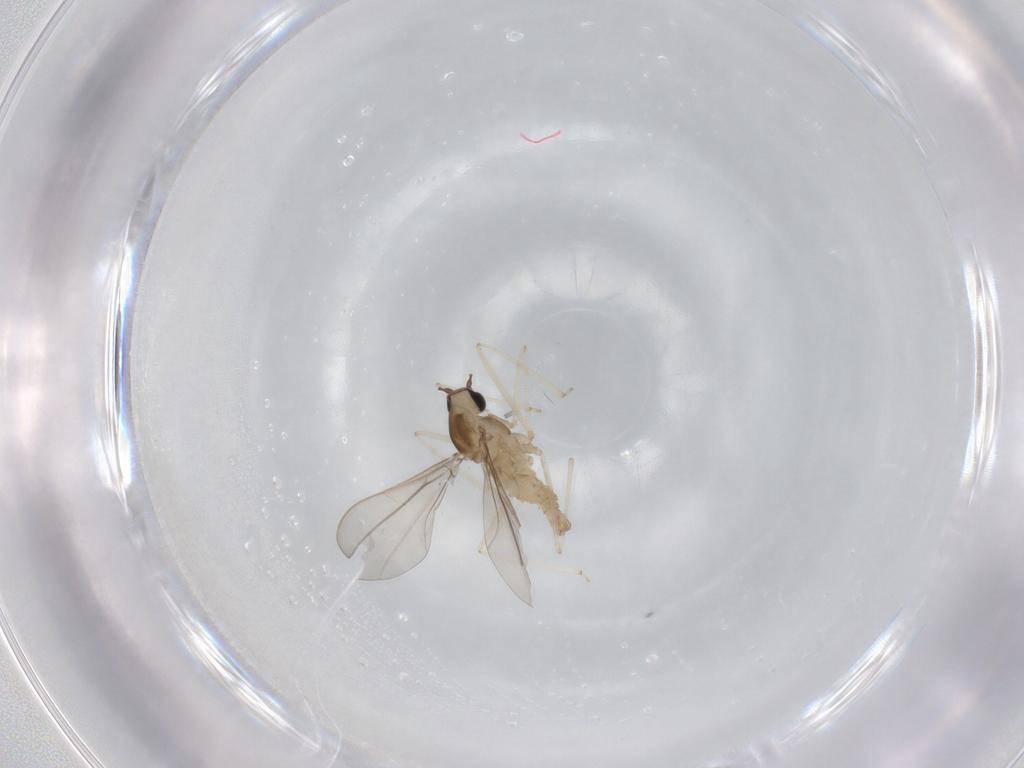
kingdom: Animalia
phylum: Arthropoda
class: Insecta
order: Diptera
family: Cecidomyiidae
